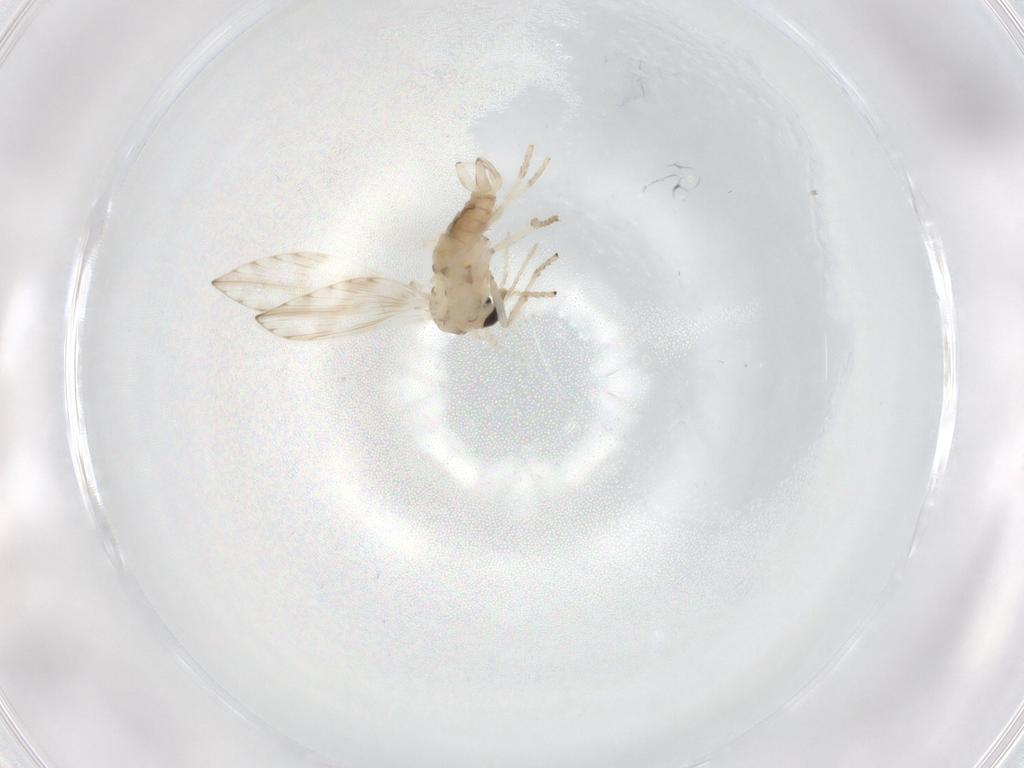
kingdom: Animalia
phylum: Arthropoda
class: Insecta
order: Diptera
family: Psychodidae
